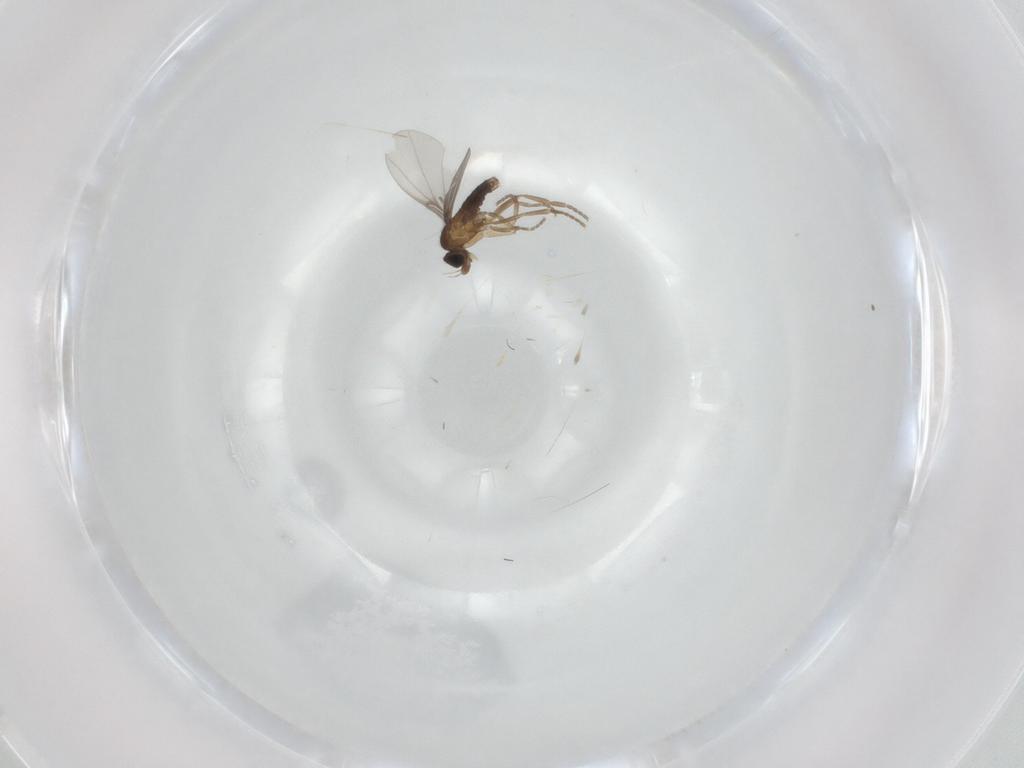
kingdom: Animalia
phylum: Arthropoda
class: Insecta
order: Diptera
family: Phoridae
